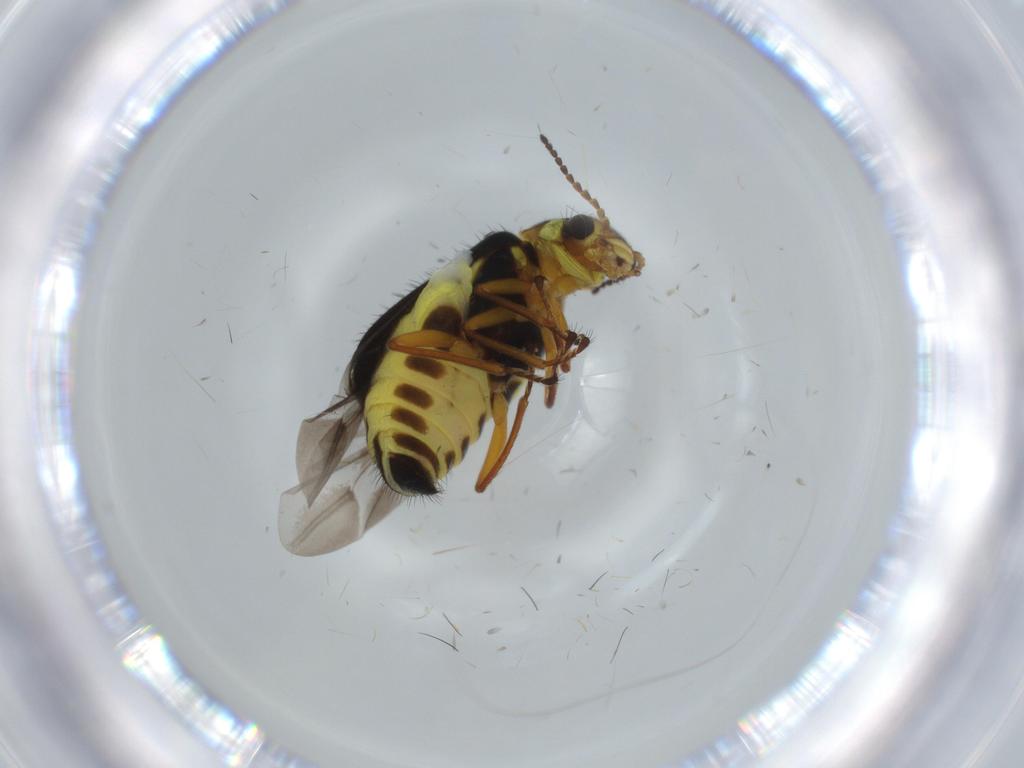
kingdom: Animalia
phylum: Arthropoda
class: Insecta
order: Coleoptera
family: Melyridae
